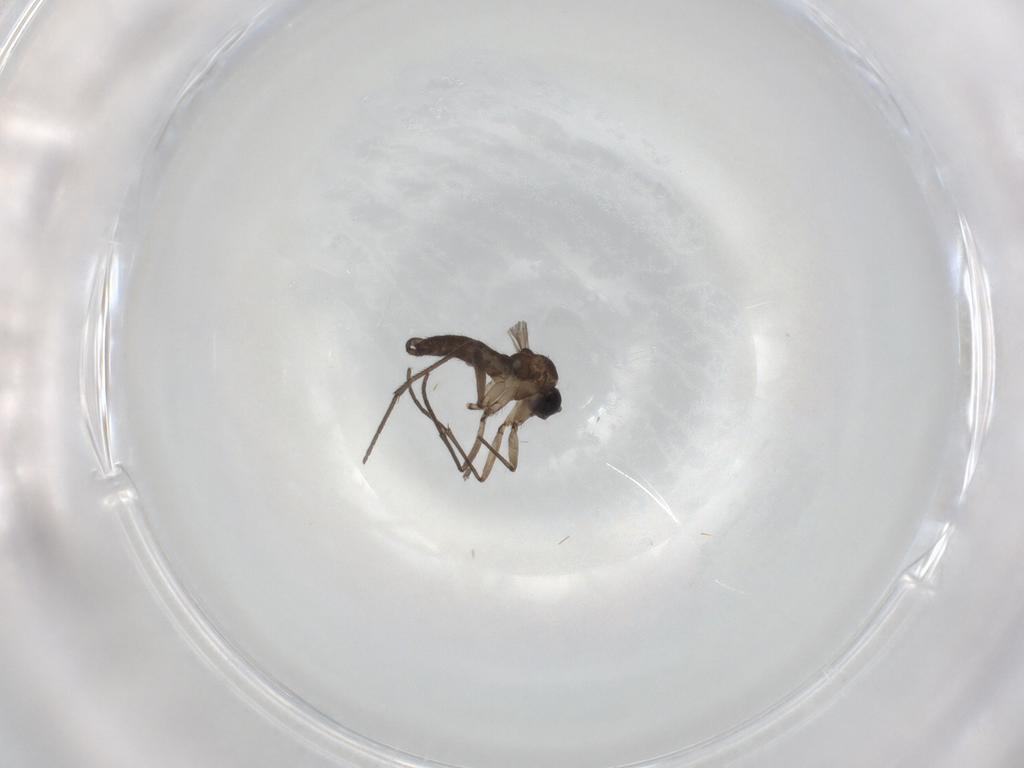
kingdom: Animalia
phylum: Arthropoda
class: Insecta
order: Diptera
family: Sciaridae
